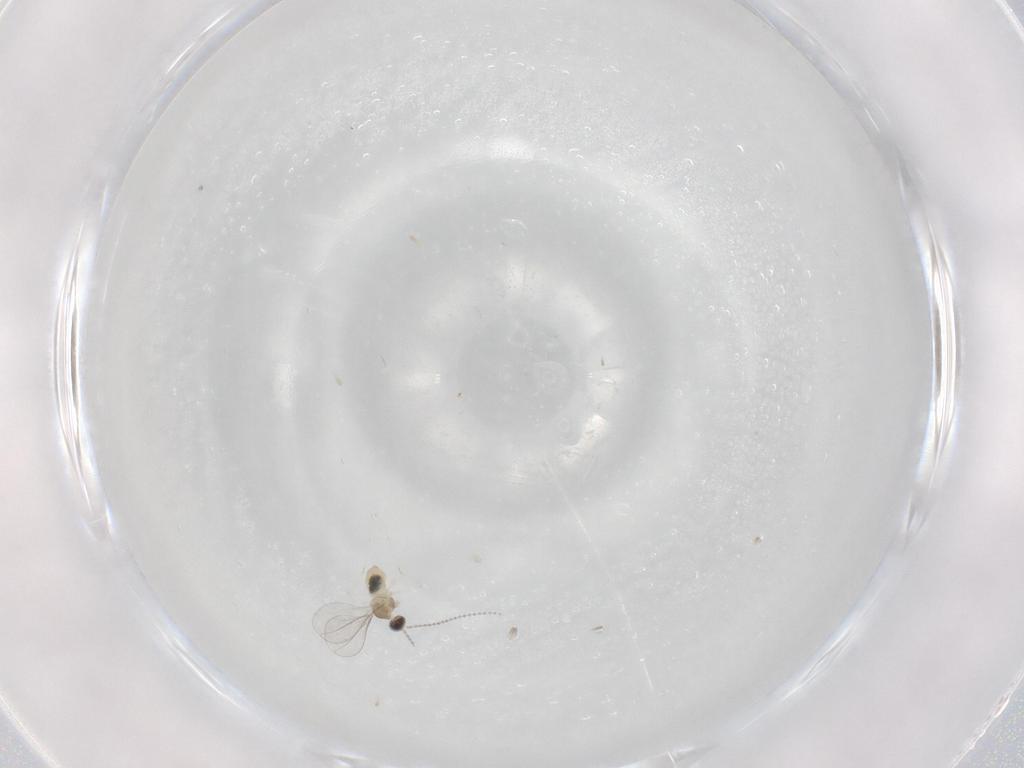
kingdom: Animalia
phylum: Arthropoda
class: Insecta
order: Diptera
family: Cecidomyiidae
